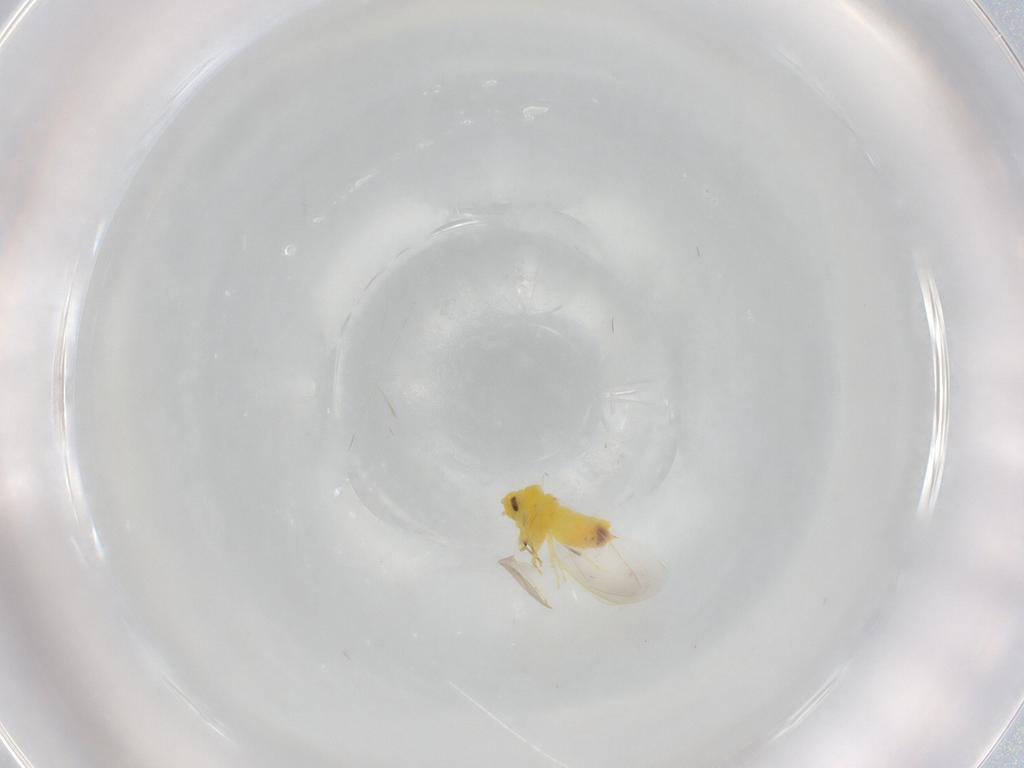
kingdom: Animalia
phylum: Arthropoda
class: Insecta
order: Hemiptera
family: Aleyrodidae
